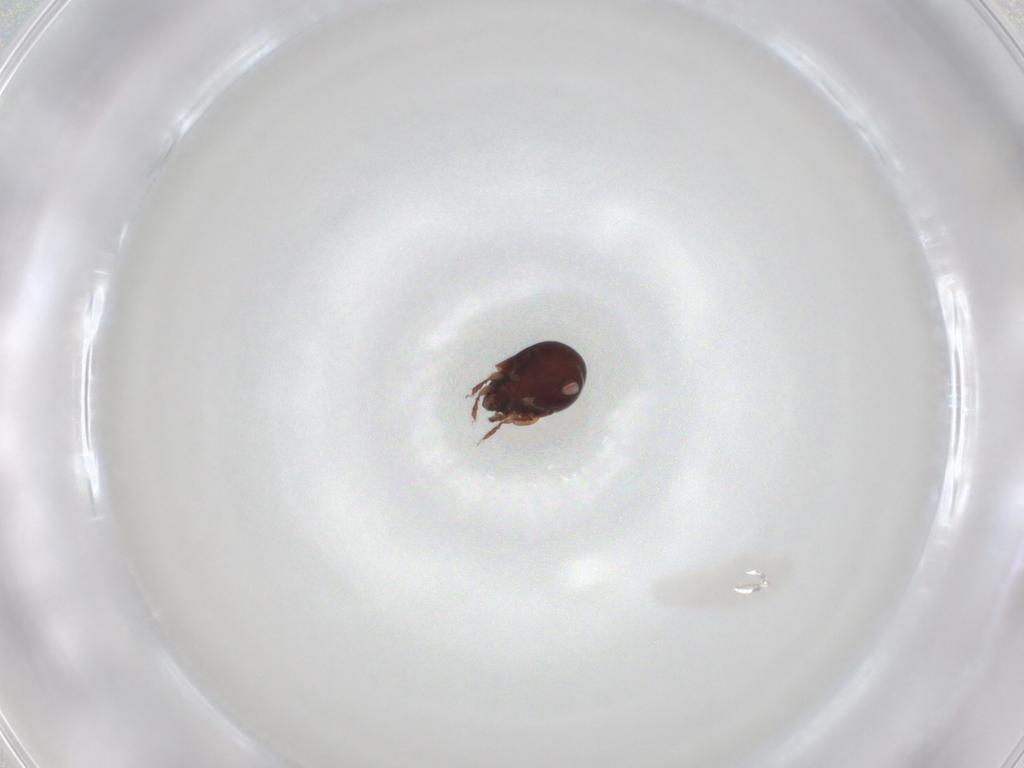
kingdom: Animalia
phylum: Arthropoda
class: Arachnida
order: Sarcoptiformes
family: Humerobatidae
